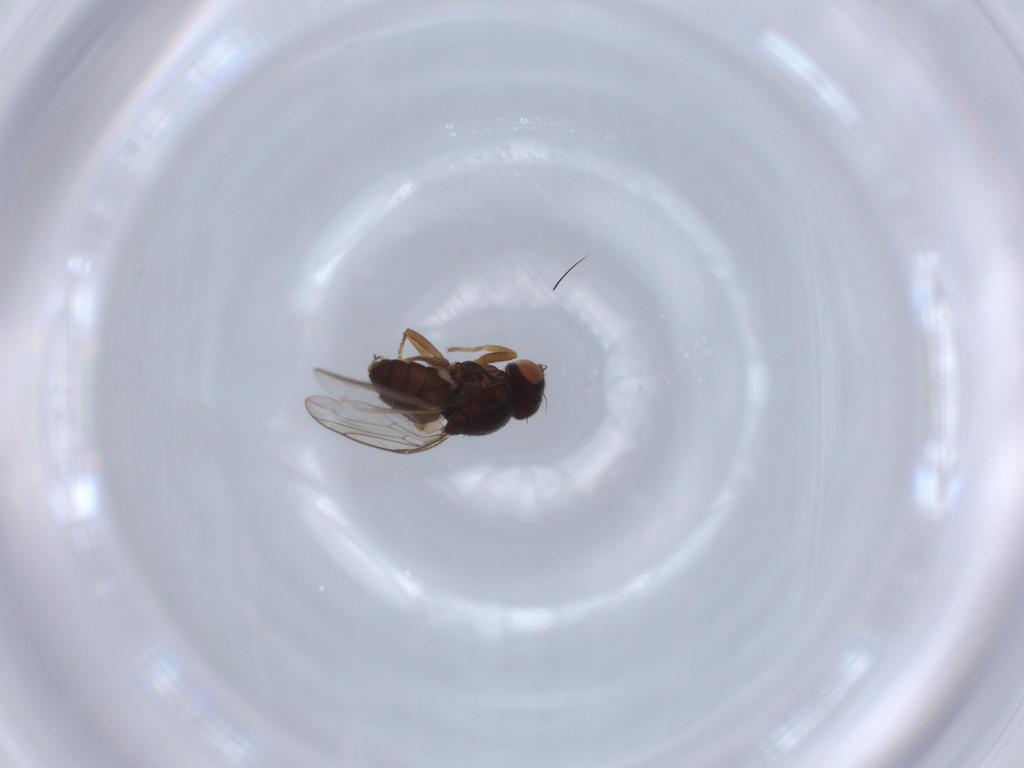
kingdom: Animalia
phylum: Arthropoda
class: Insecta
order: Diptera
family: Chloropidae
